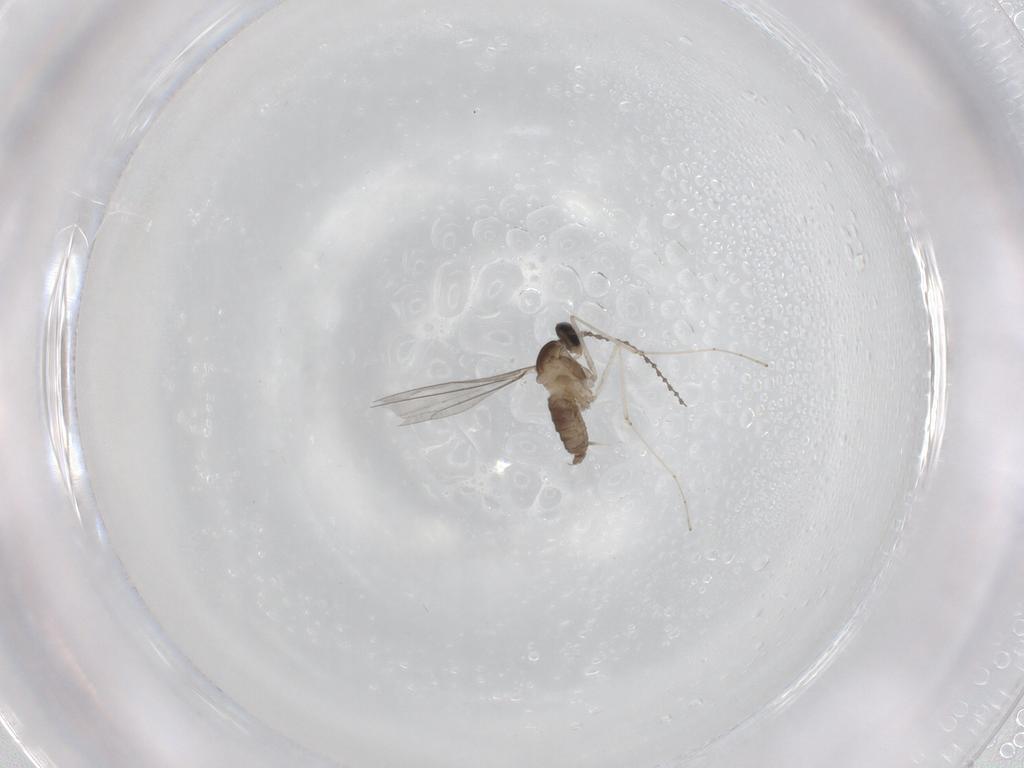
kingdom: Animalia
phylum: Arthropoda
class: Insecta
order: Diptera
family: Cecidomyiidae
